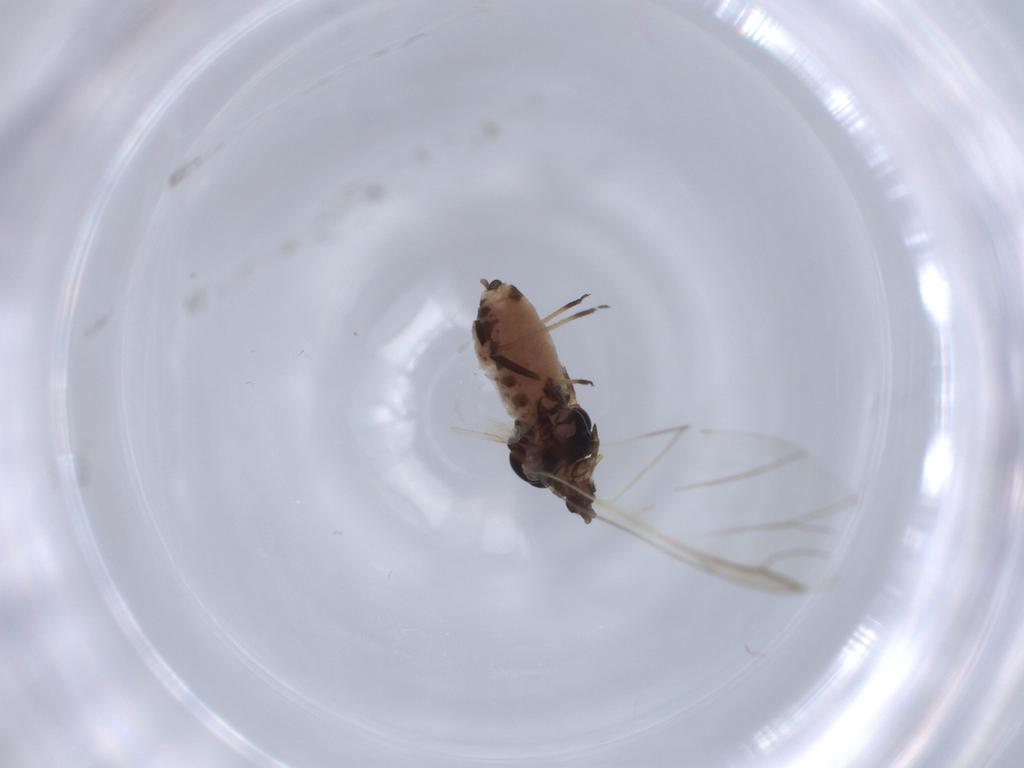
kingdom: Animalia
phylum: Arthropoda
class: Insecta
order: Hemiptera
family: Aphididae
